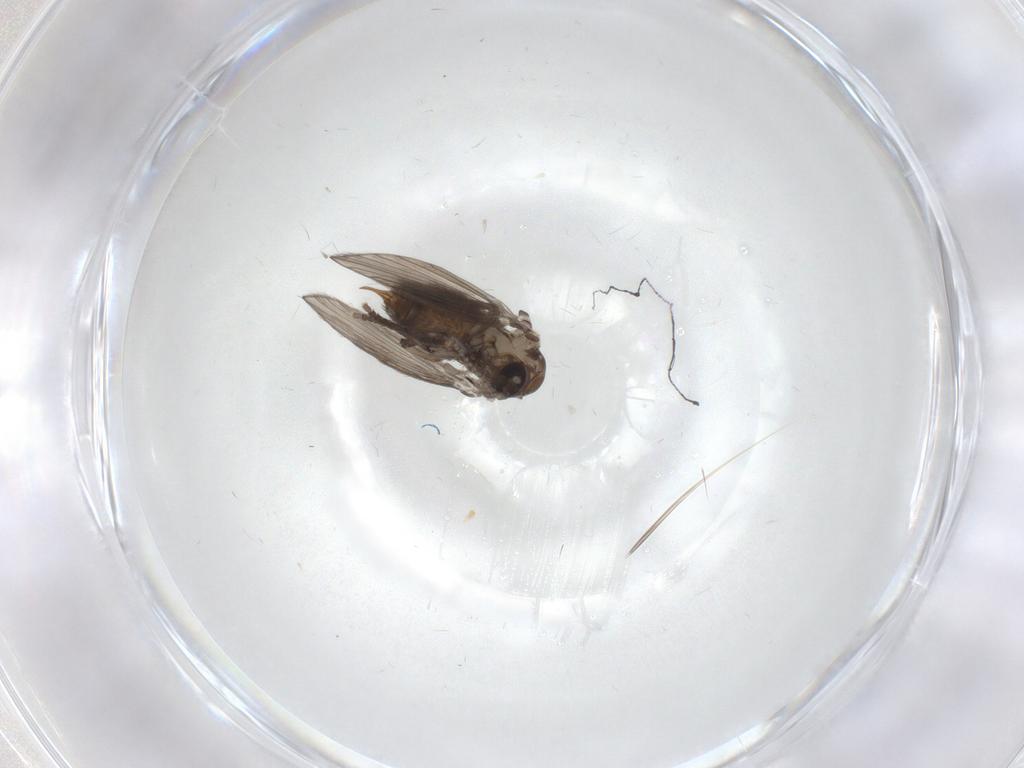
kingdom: Animalia
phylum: Arthropoda
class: Insecta
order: Diptera
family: Psychodidae
